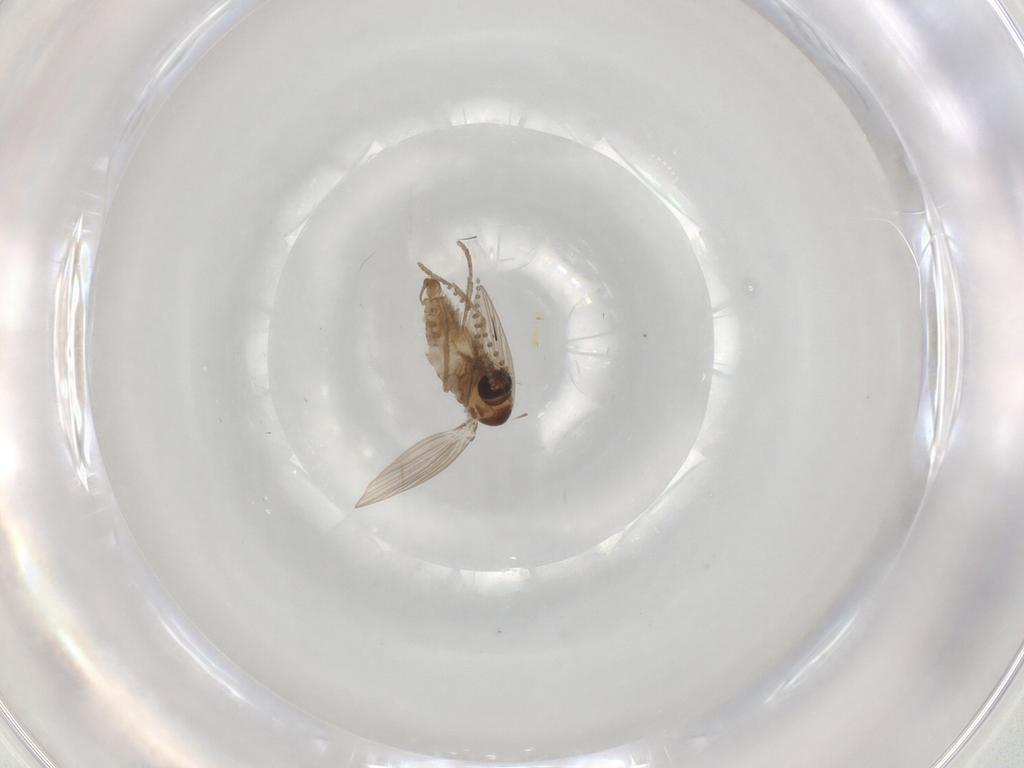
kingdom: Animalia
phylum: Arthropoda
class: Insecta
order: Diptera
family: Psychodidae
